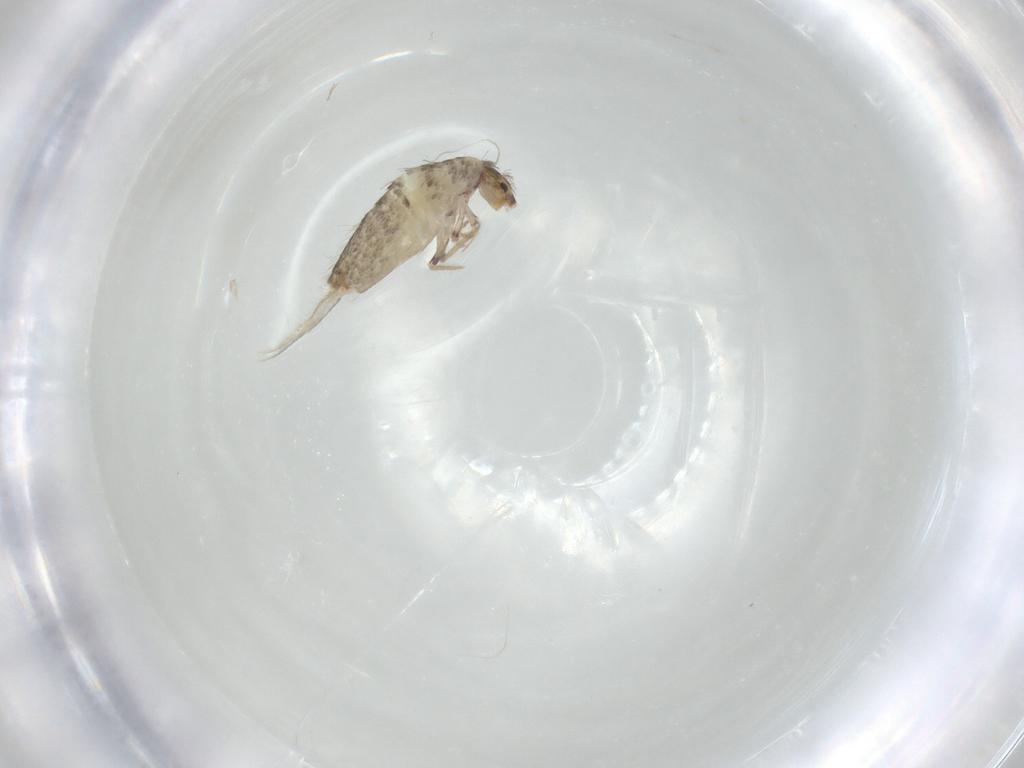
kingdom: Animalia
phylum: Arthropoda
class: Collembola
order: Entomobryomorpha
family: Entomobryidae
